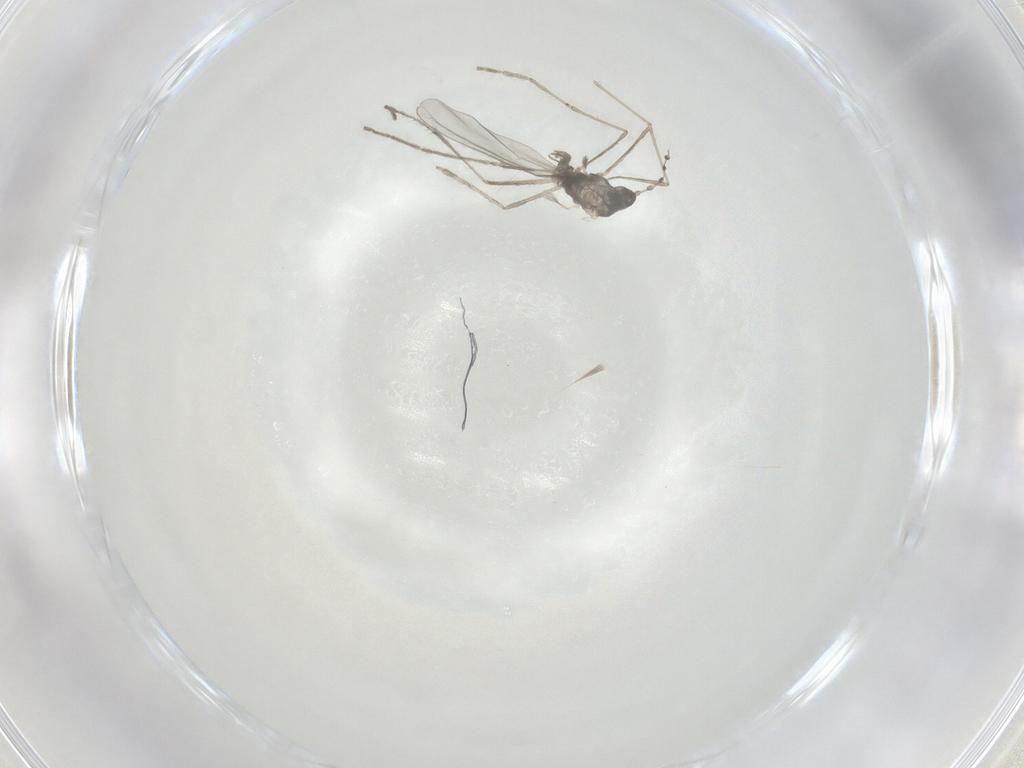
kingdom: Animalia
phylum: Arthropoda
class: Insecta
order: Diptera
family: Cecidomyiidae
